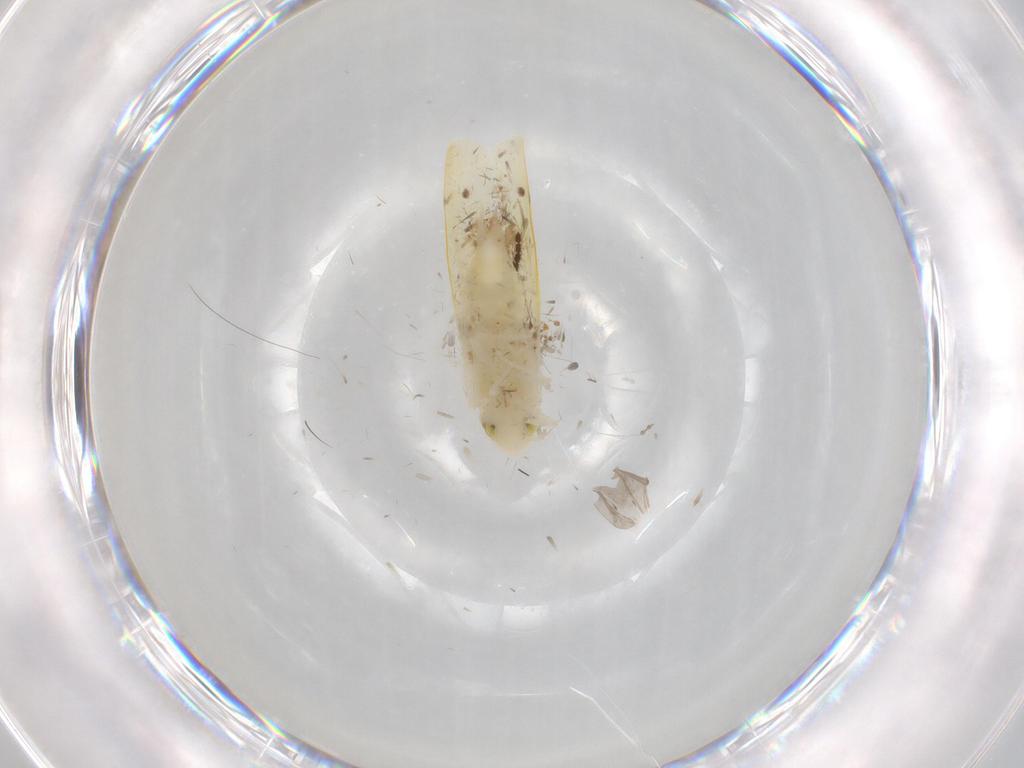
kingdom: Animalia
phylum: Arthropoda
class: Insecta
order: Hemiptera
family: Cicadellidae
